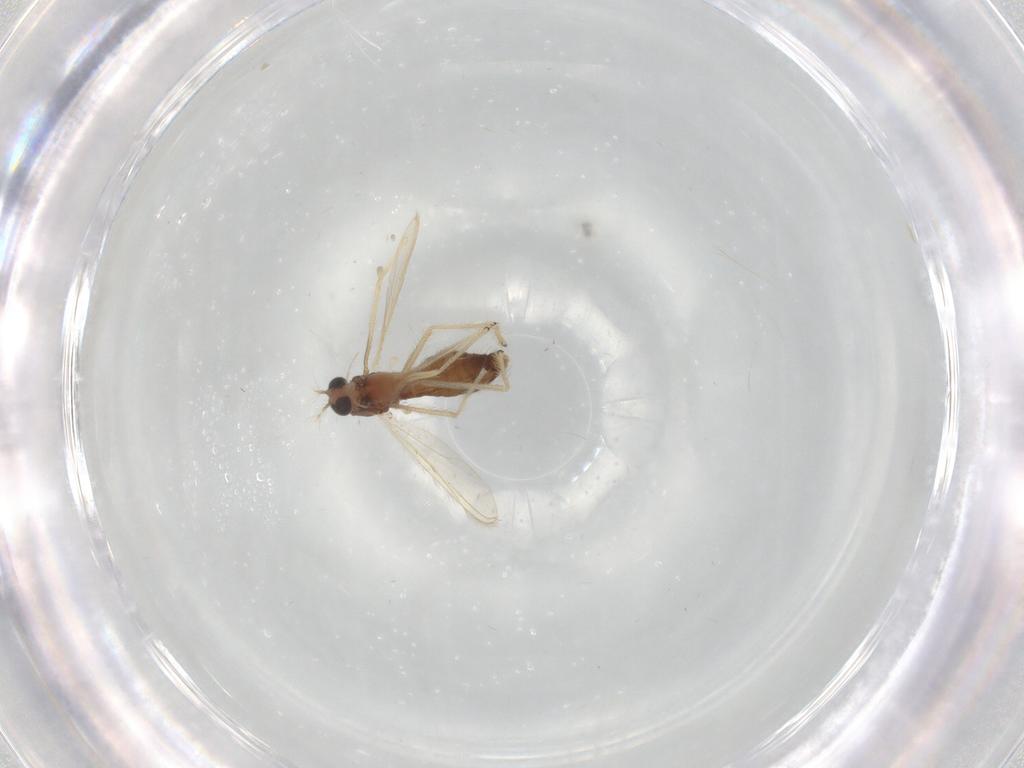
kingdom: Animalia
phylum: Arthropoda
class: Insecta
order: Diptera
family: Chironomidae
